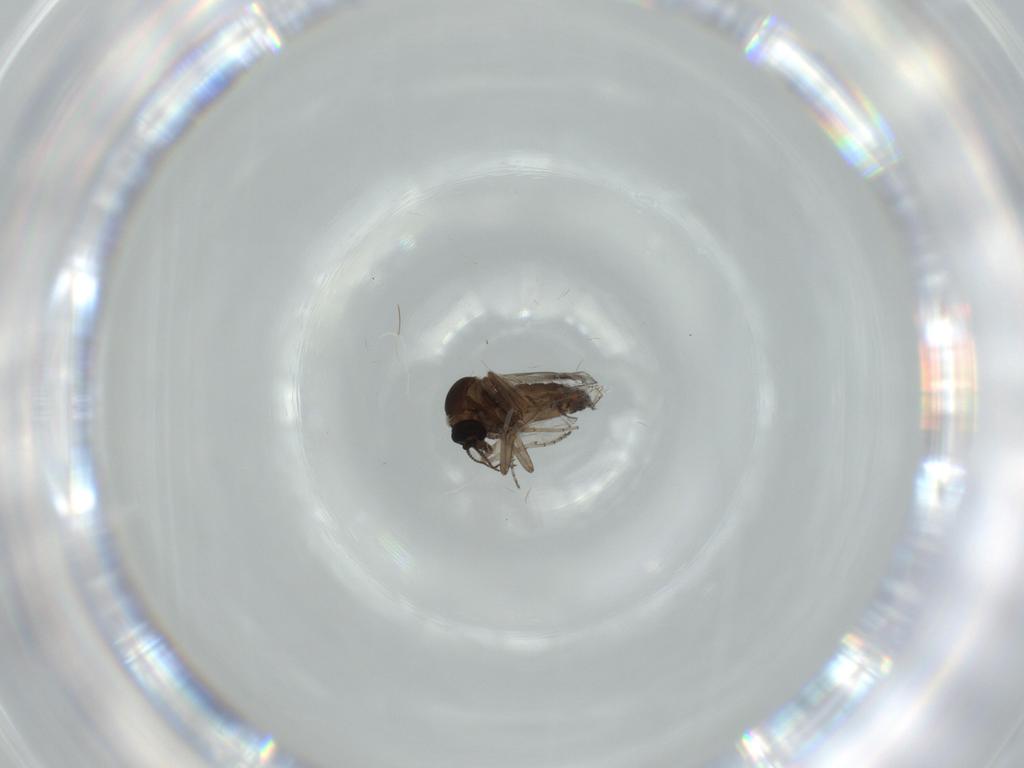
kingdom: Animalia
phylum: Arthropoda
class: Insecta
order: Diptera
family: Chironomidae
